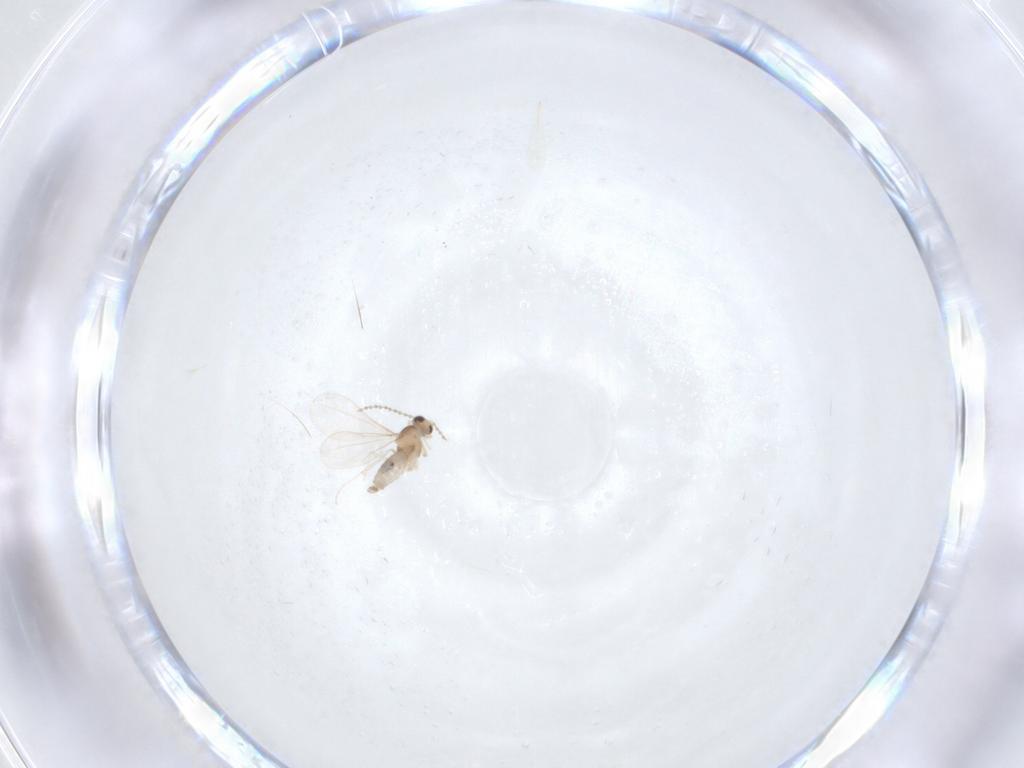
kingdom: Animalia
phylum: Arthropoda
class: Insecta
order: Diptera
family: Cecidomyiidae
